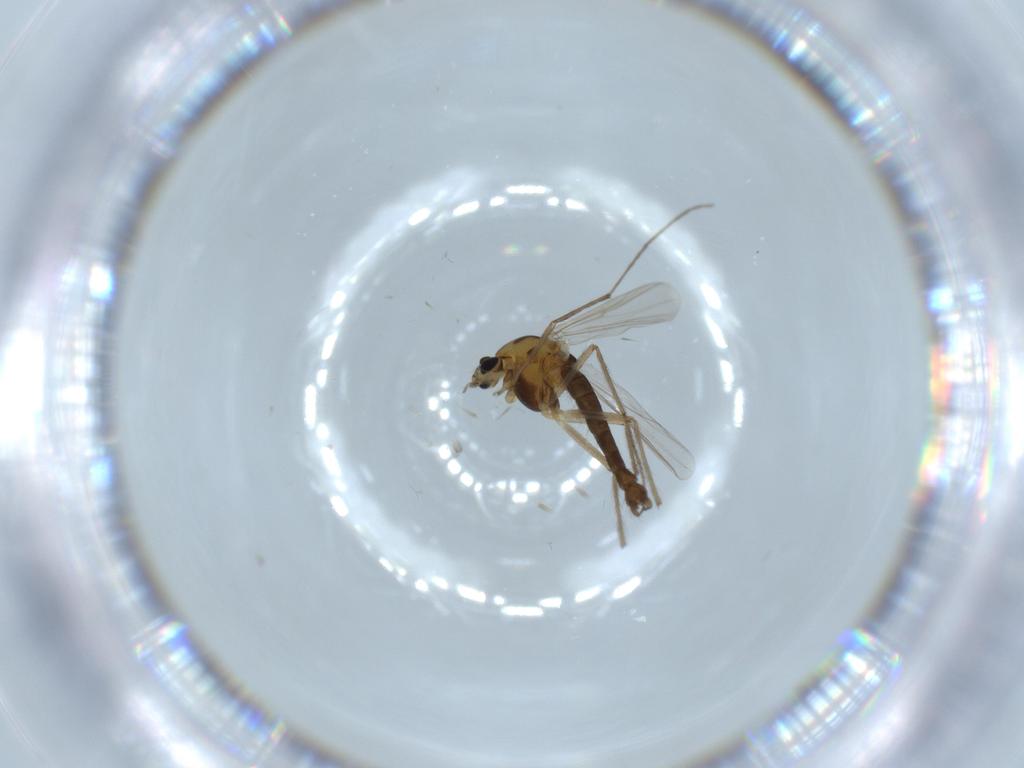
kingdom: Animalia
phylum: Arthropoda
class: Insecta
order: Diptera
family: Chironomidae
